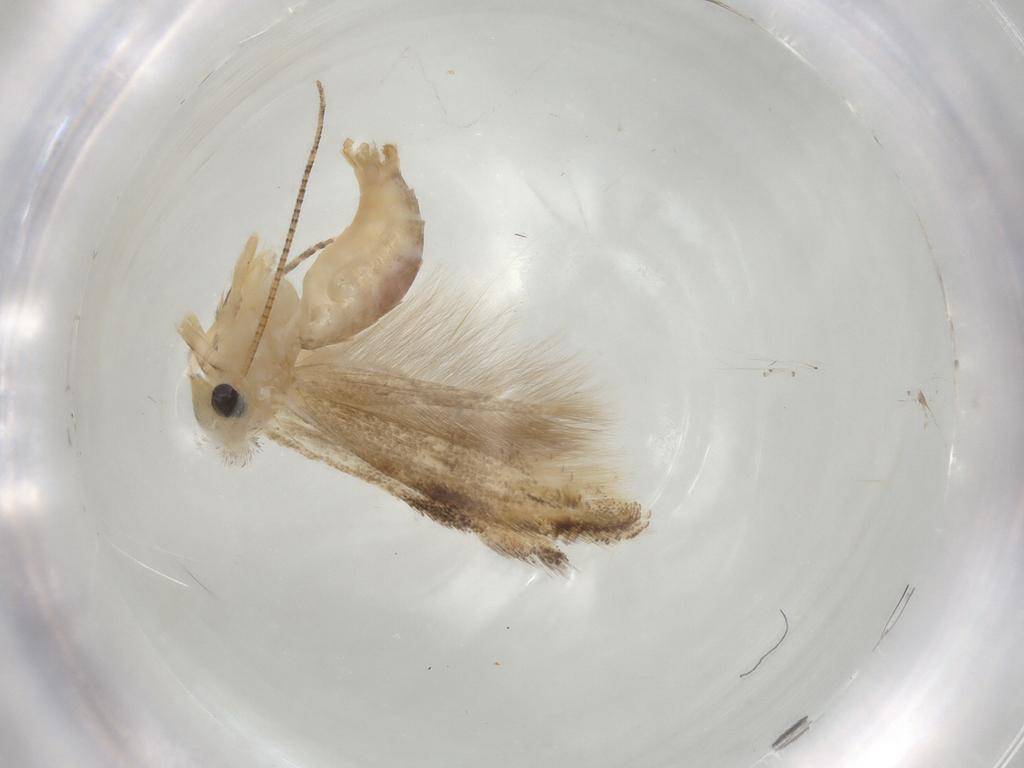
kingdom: Animalia
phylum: Arthropoda
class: Insecta
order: Lepidoptera
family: Bucculatricidae
